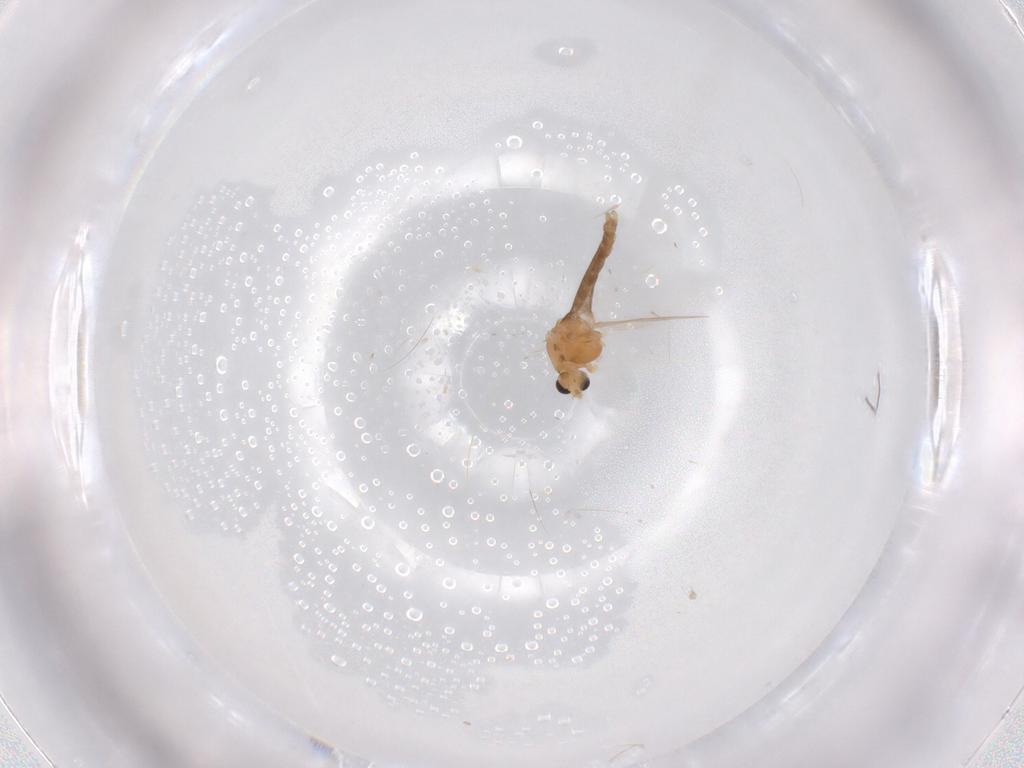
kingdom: Animalia
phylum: Arthropoda
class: Insecta
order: Diptera
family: Chironomidae
